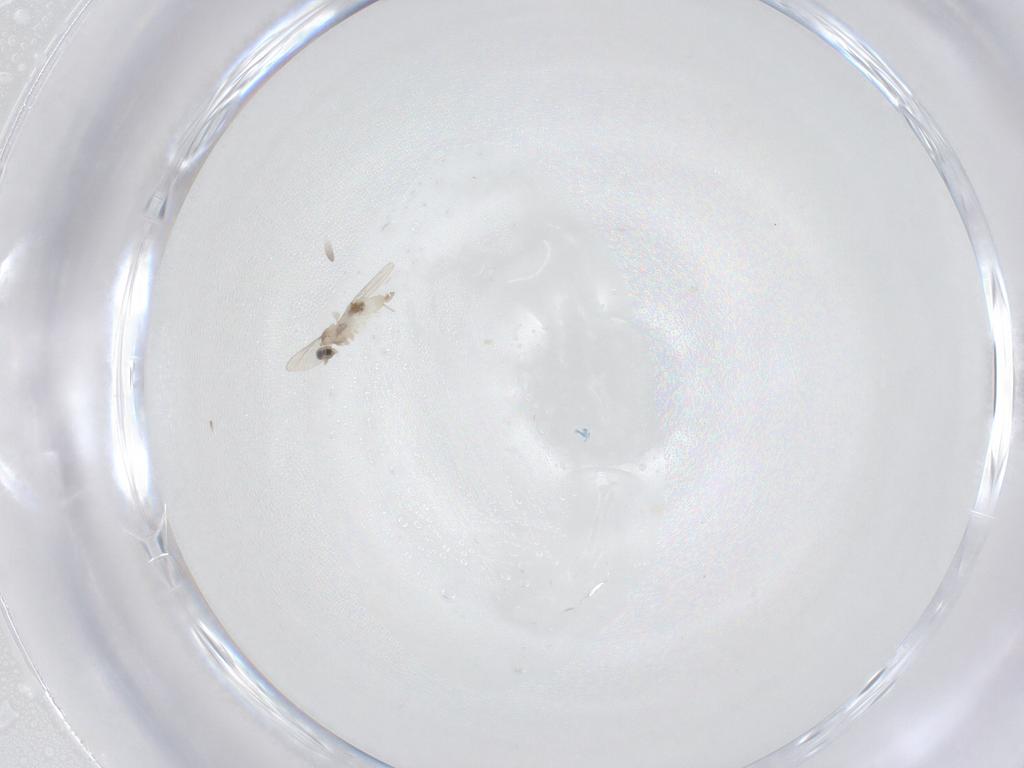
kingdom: Animalia
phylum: Arthropoda
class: Insecta
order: Diptera
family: Cecidomyiidae
